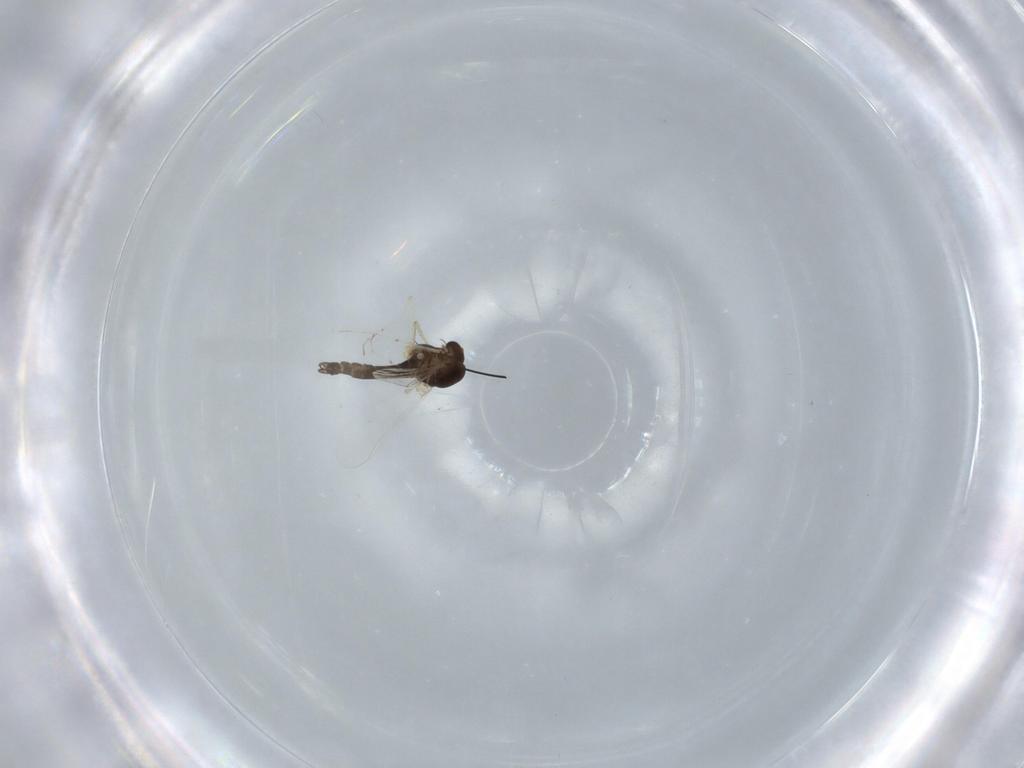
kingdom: Animalia
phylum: Arthropoda
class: Insecta
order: Diptera
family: Chironomidae
